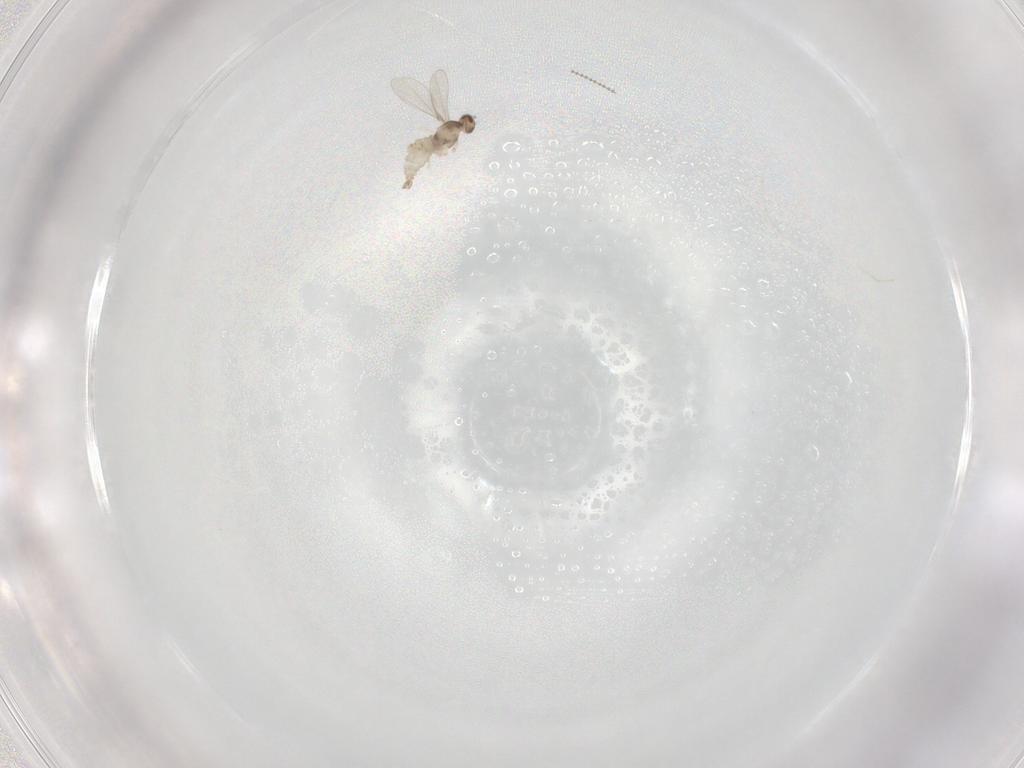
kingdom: Animalia
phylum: Arthropoda
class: Insecta
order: Diptera
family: Cecidomyiidae
